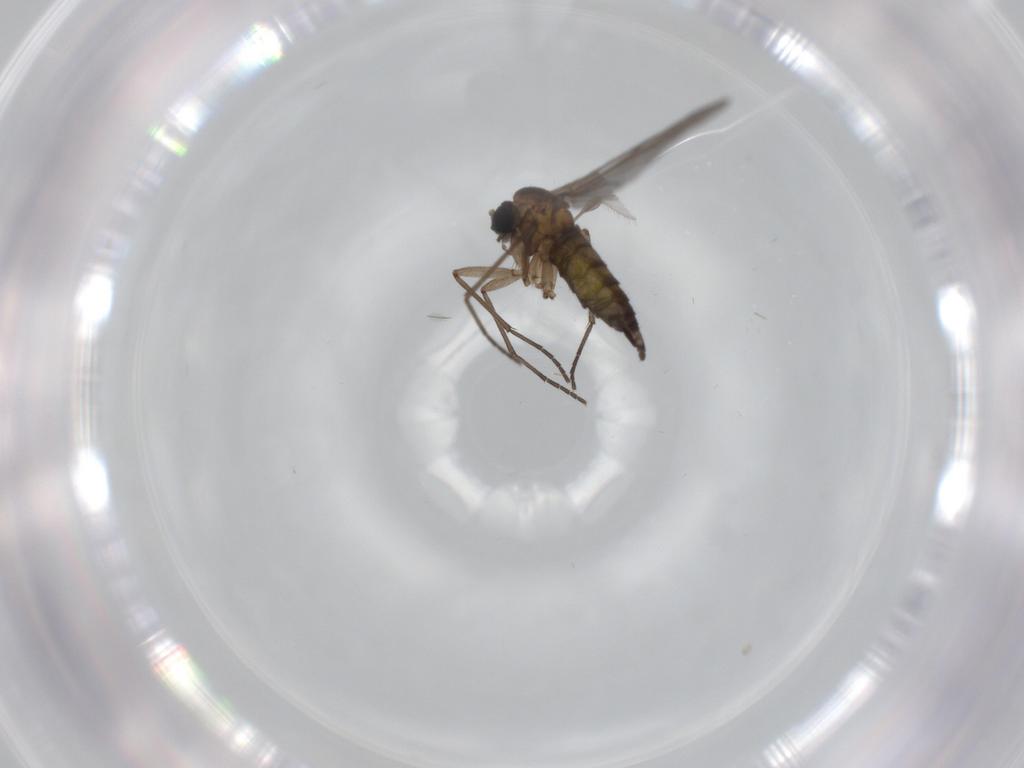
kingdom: Animalia
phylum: Arthropoda
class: Insecta
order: Diptera
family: Sciaridae
